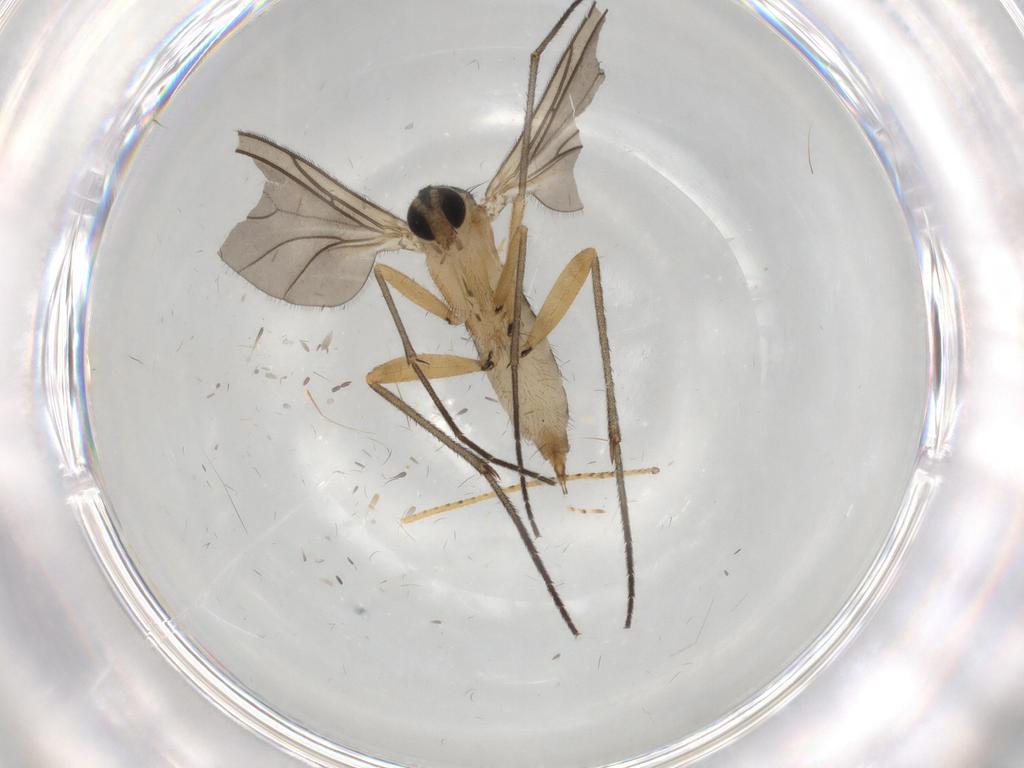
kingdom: Animalia
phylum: Arthropoda
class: Insecta
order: Diptera
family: Sciaridae
